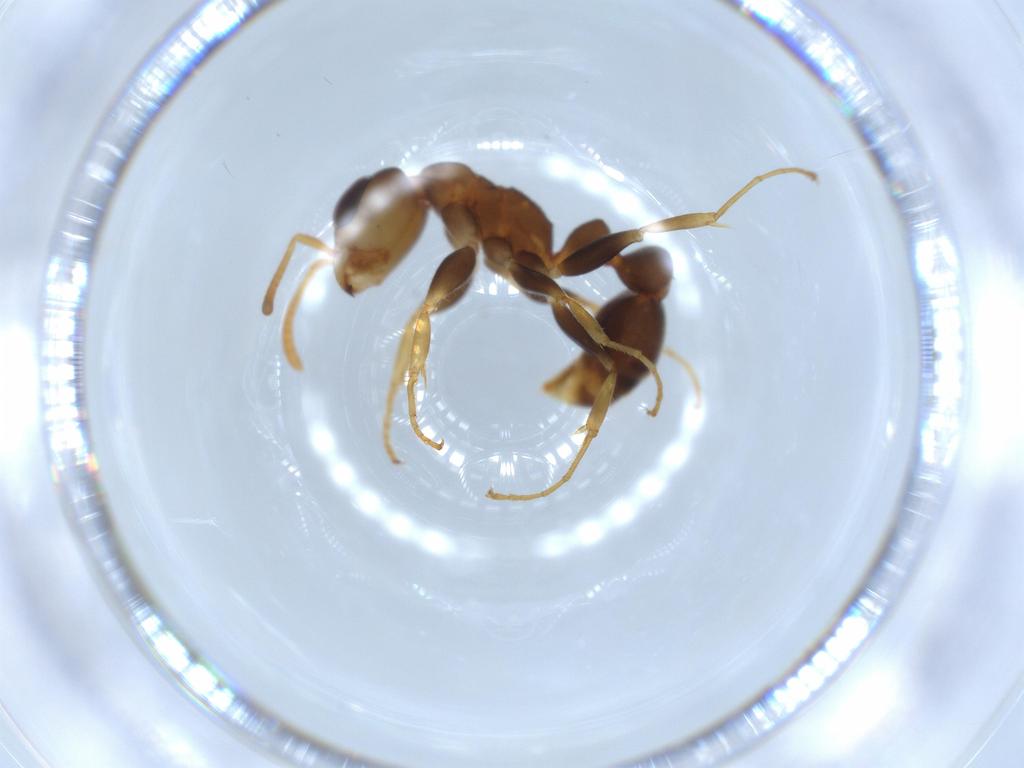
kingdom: Animalia
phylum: Arthropoda
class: Insecta
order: Hymenoptera
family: Formicidae
